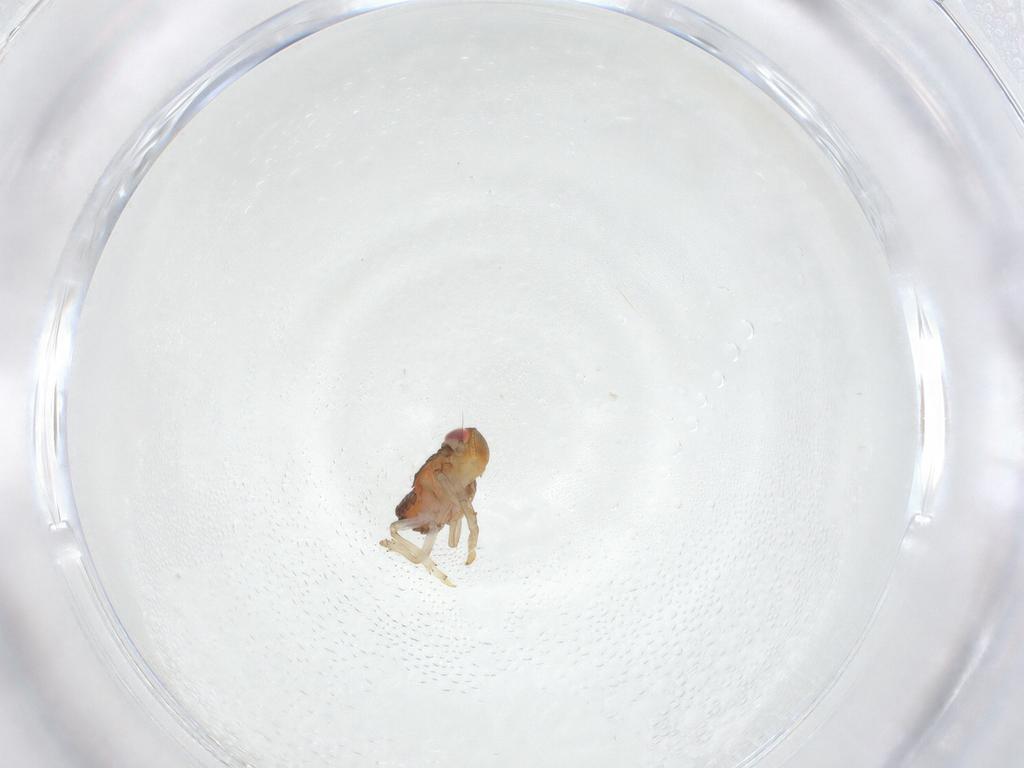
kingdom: Animalia
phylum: Arthropoda
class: Insecta
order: Hemiptera
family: Issidae
